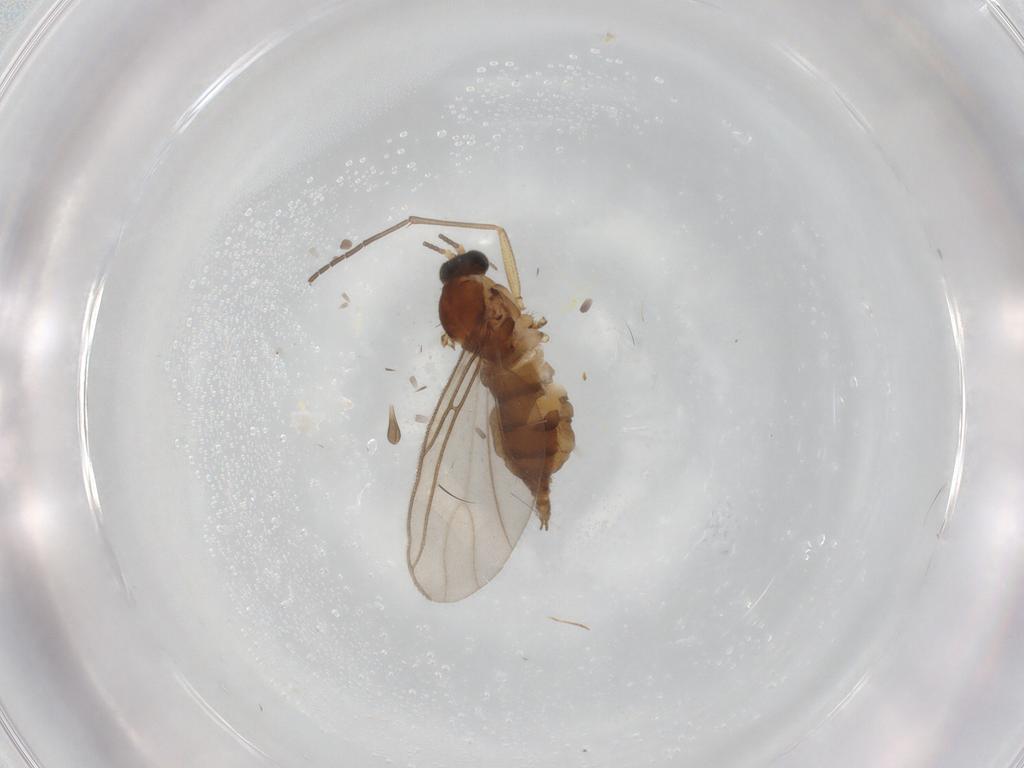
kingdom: Animalia
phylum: Arthropoda
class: Insecta
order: Diptera
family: Sciaridae
